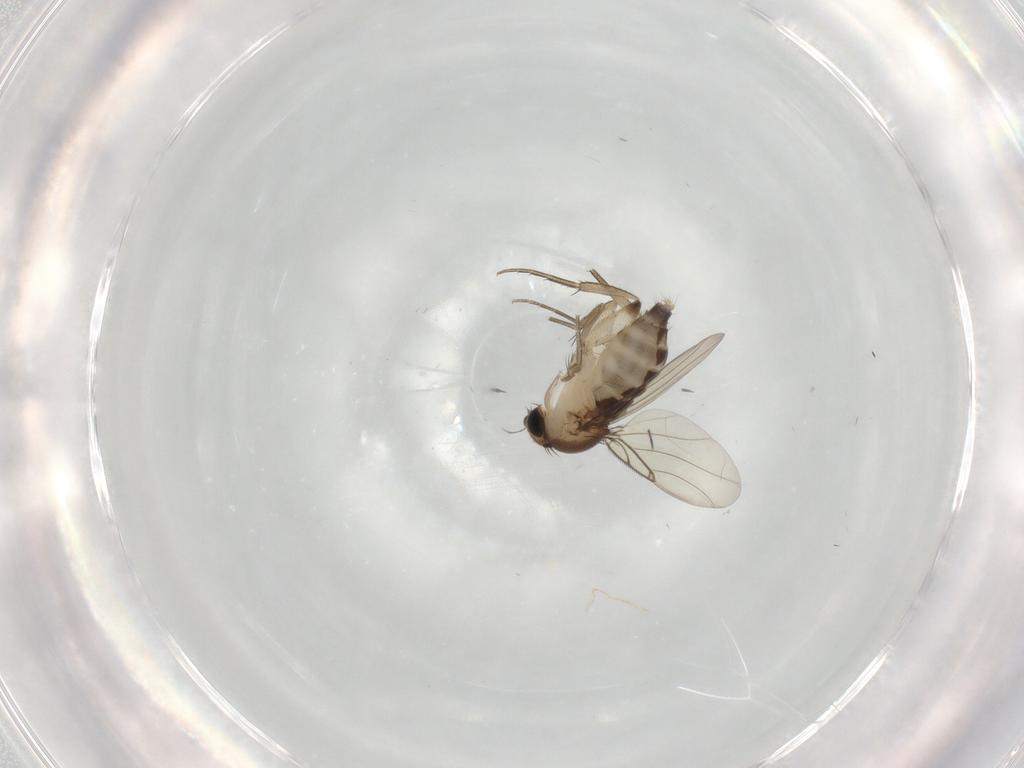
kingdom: Animalia
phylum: Arthropoda
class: Insecta
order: Diptera
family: Phoridae
